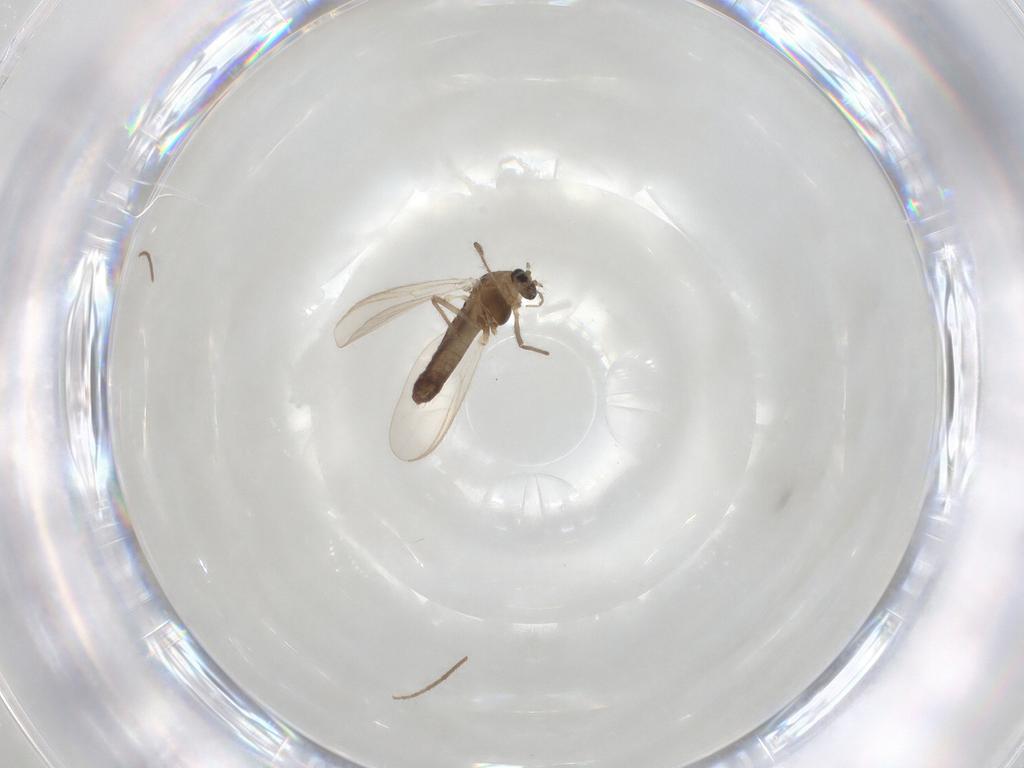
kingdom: Animalia
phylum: Arthropoda
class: Insecta
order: Diptera
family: Chironomidae
